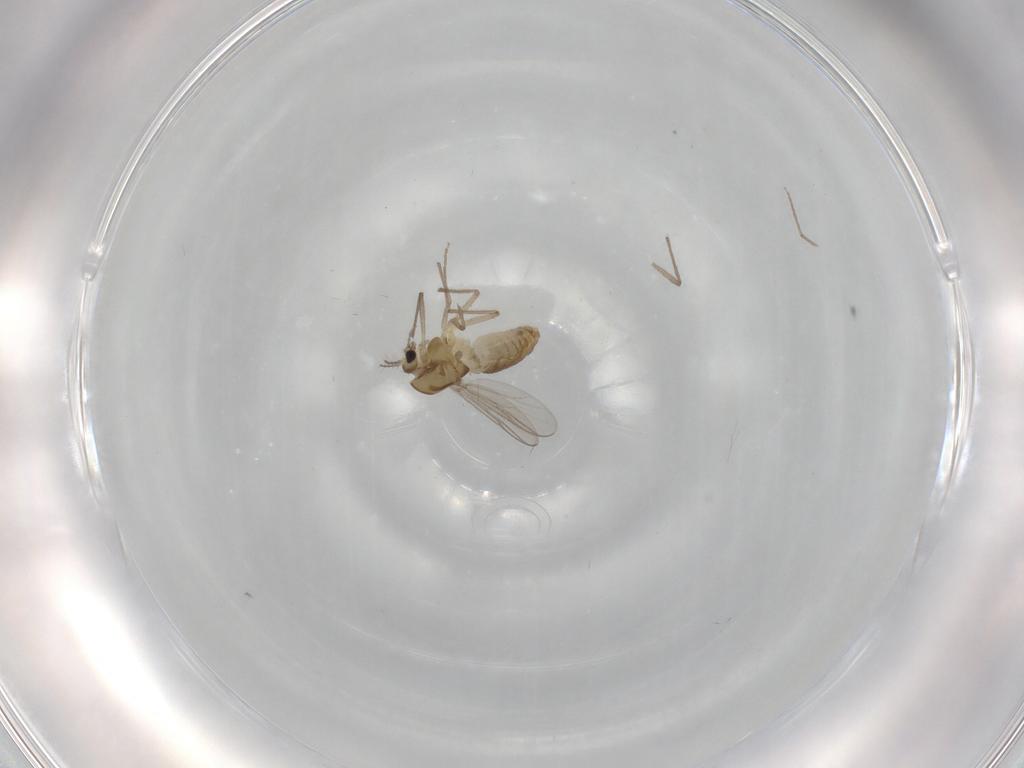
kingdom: Animalia
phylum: Arthropoda
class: Insecta
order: Diptera
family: Chironomidae
